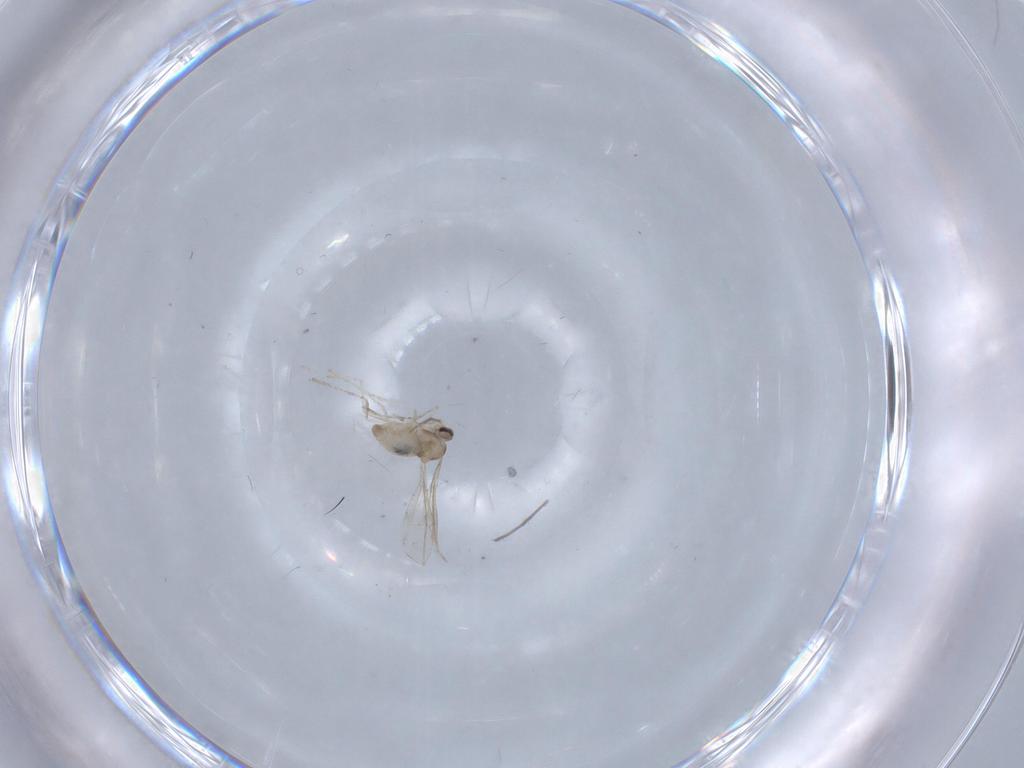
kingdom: Animalia
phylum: Arthropoda
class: Insecta
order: Diptera
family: Cecidomyiidae
